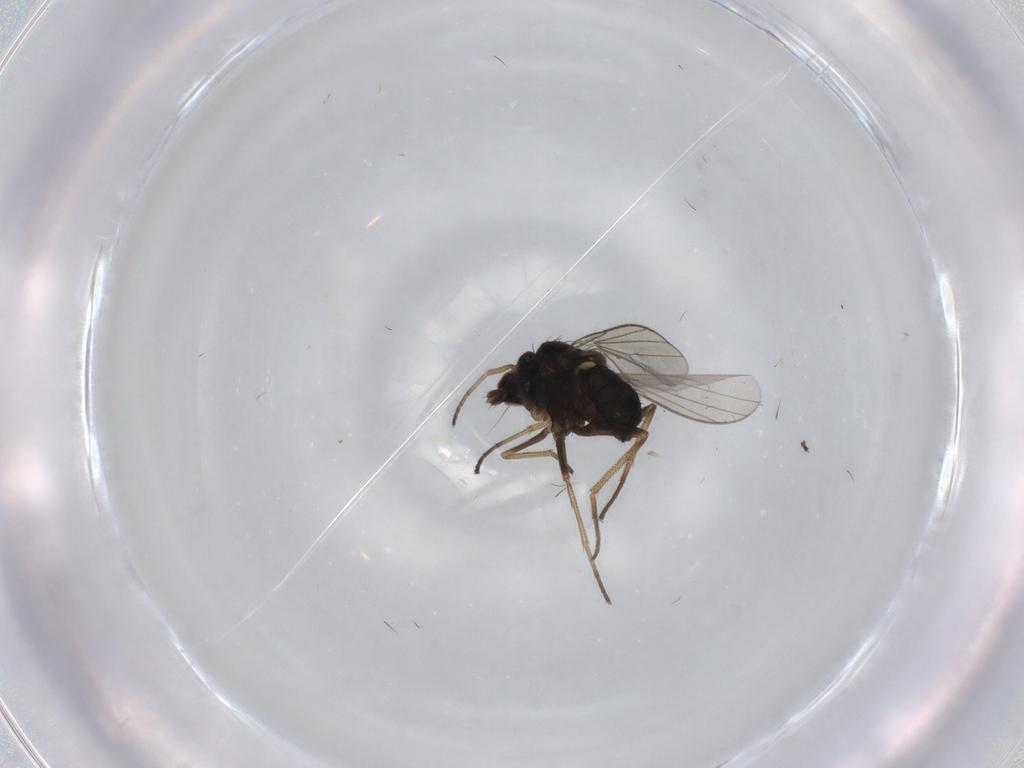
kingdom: Animalia
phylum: Arthropoda
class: Insecta
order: Diptera
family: Dolichopodidae
